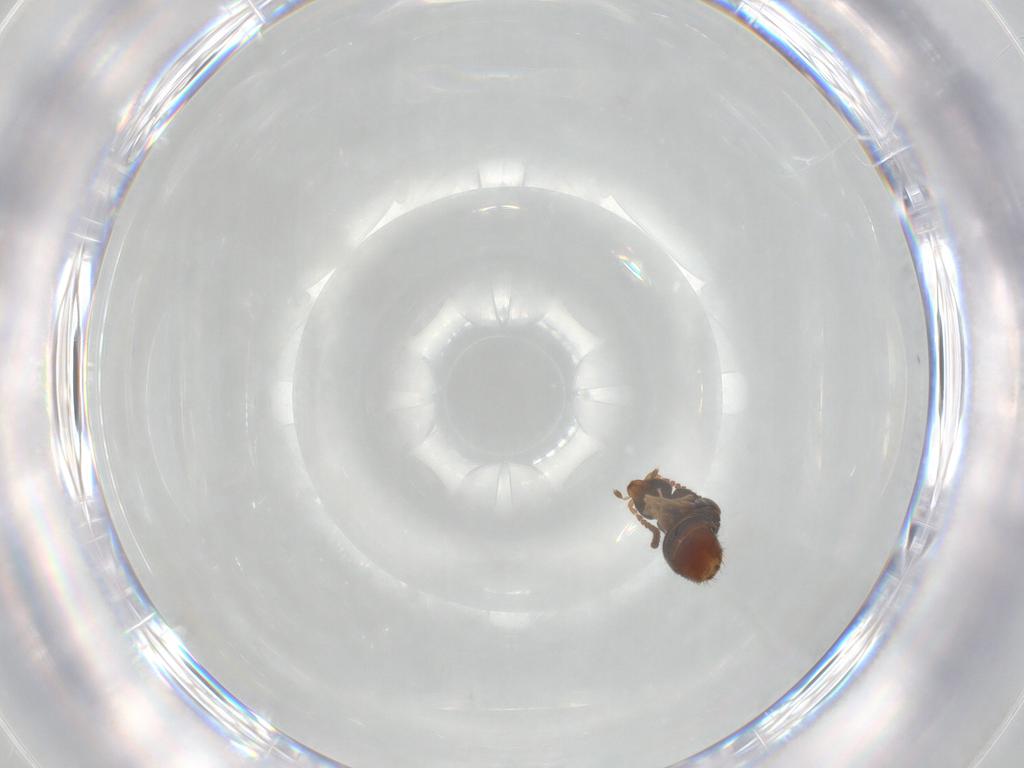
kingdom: Animalia
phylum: Arthropoda
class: Insecta
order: Coleoptera
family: Staphylinidae
